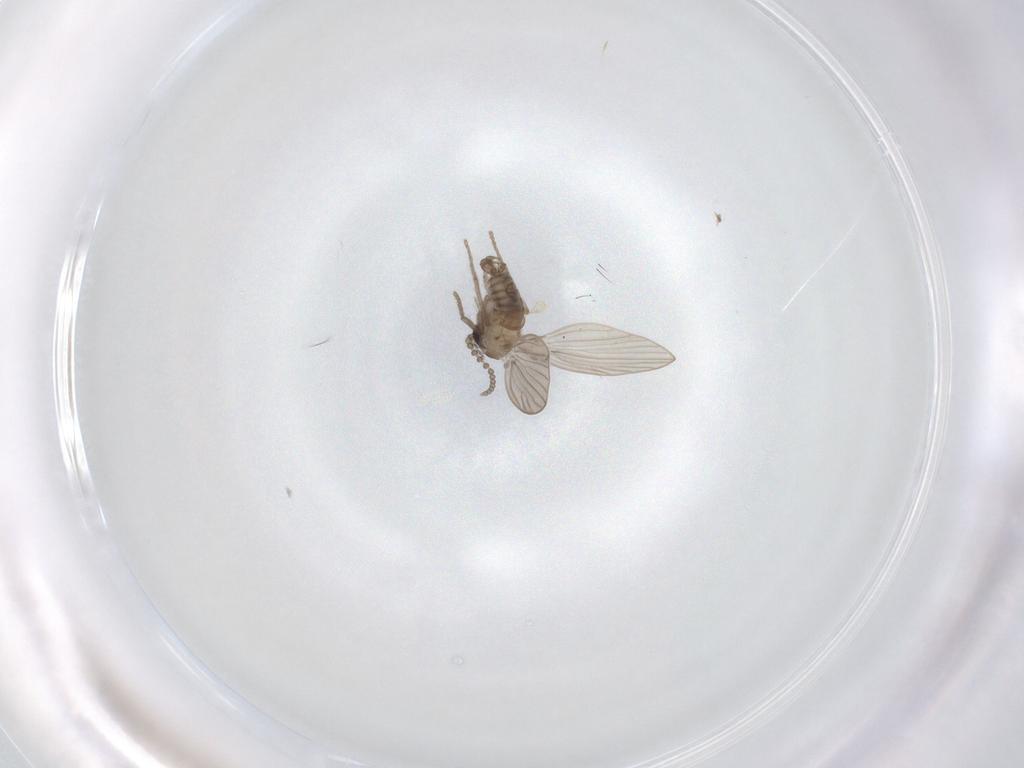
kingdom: Animalia
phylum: Arthropoda
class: Insecta
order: Diptera
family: Psychodidae
